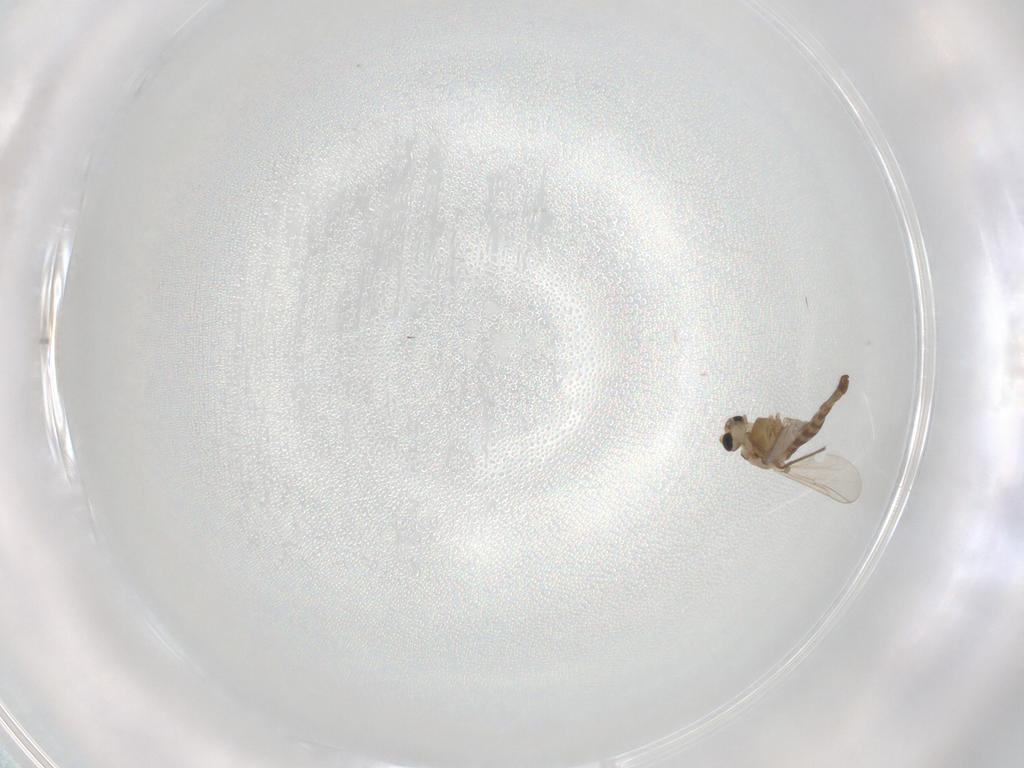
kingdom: Animalia
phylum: Arthropoda
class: Insecta
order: Diptera
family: Chironomidae
